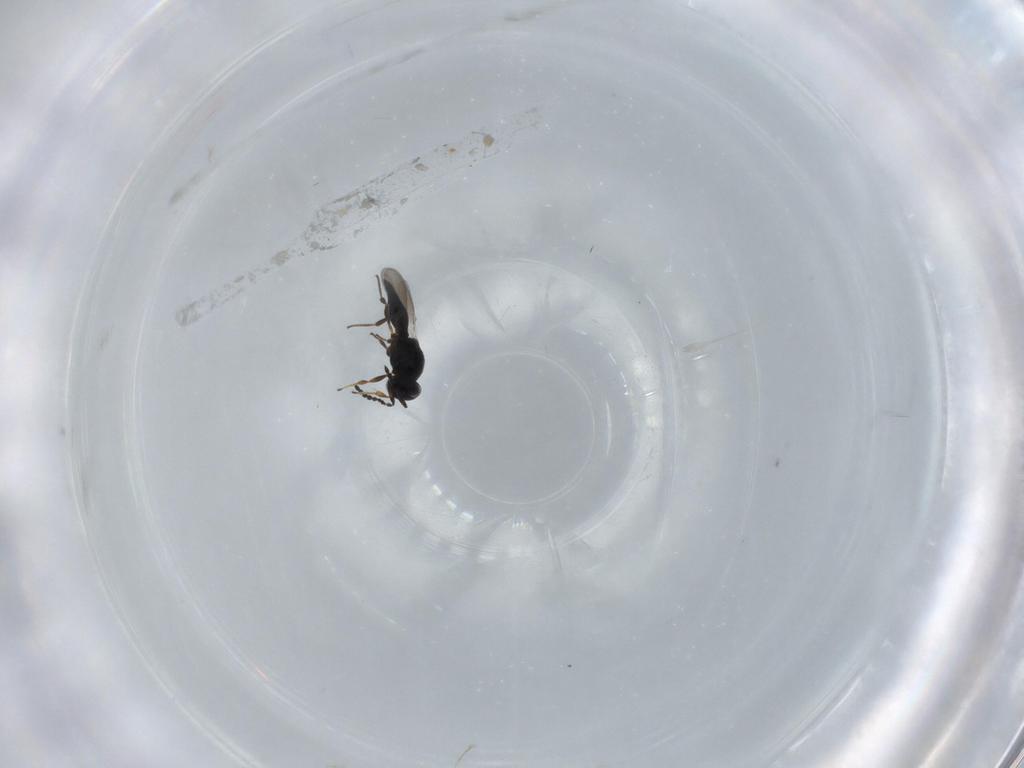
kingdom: Animalia
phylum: Arthropoda
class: Insecta
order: Hymenoptera
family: Platygastridae
